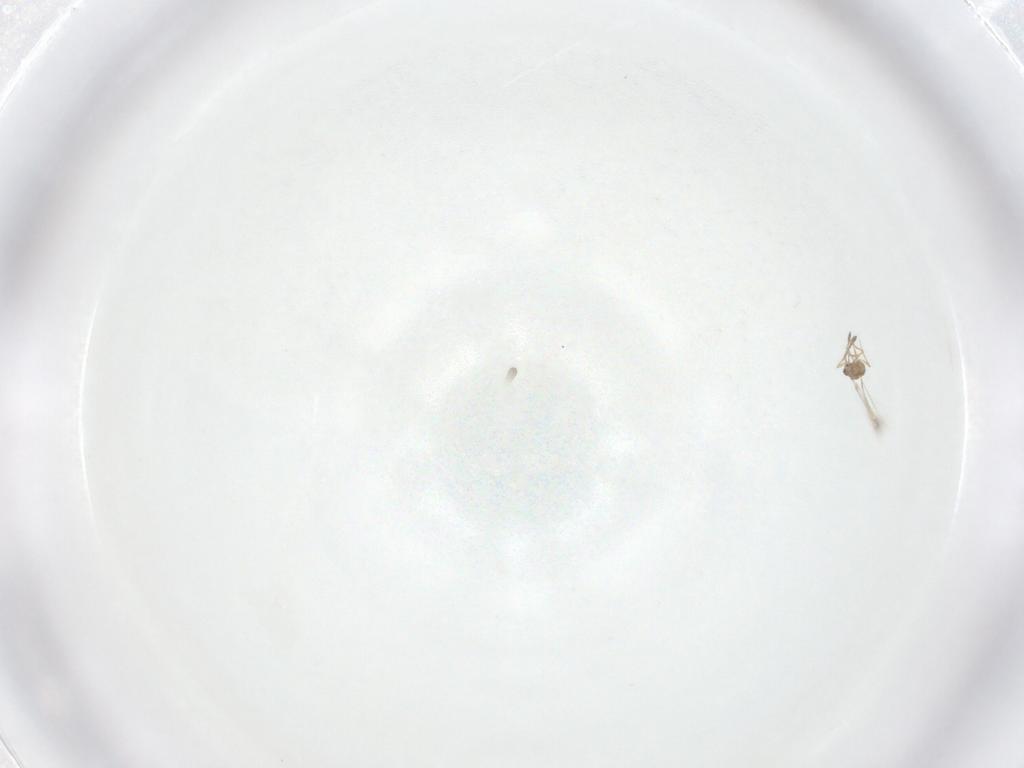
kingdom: Animalia
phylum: Arthropoda
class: Insecta
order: Hymenoptera
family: Mymaridae
